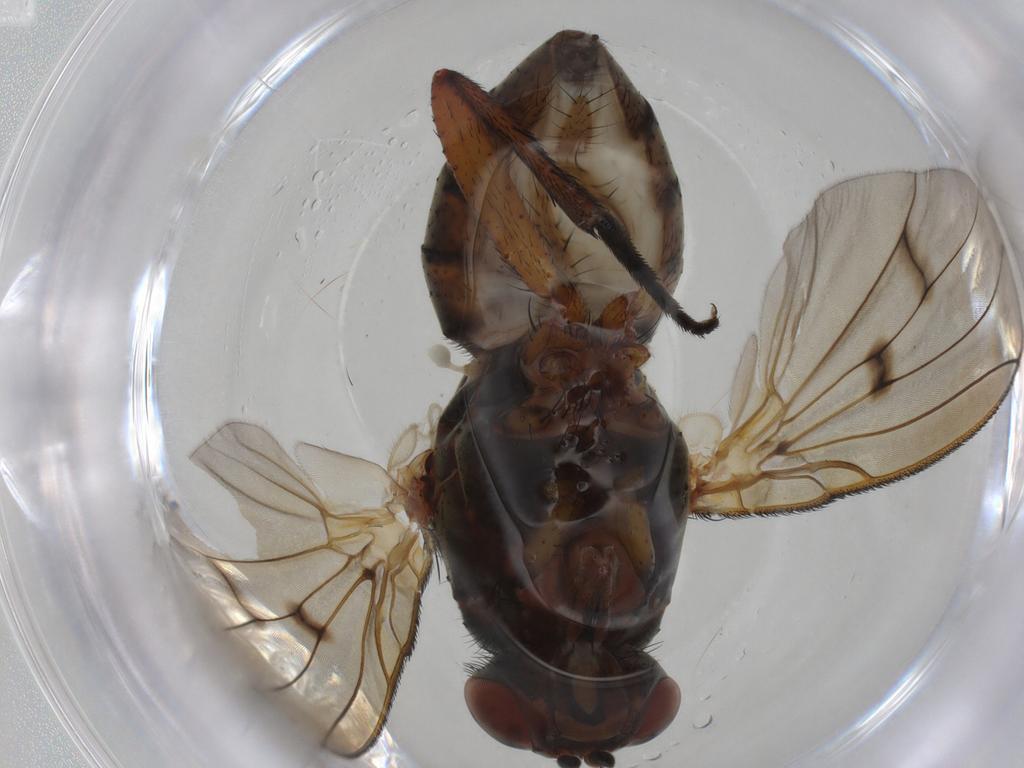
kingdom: Animalia
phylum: Arthropoda
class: Insecta
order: Diptera
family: Anthomyiidae
